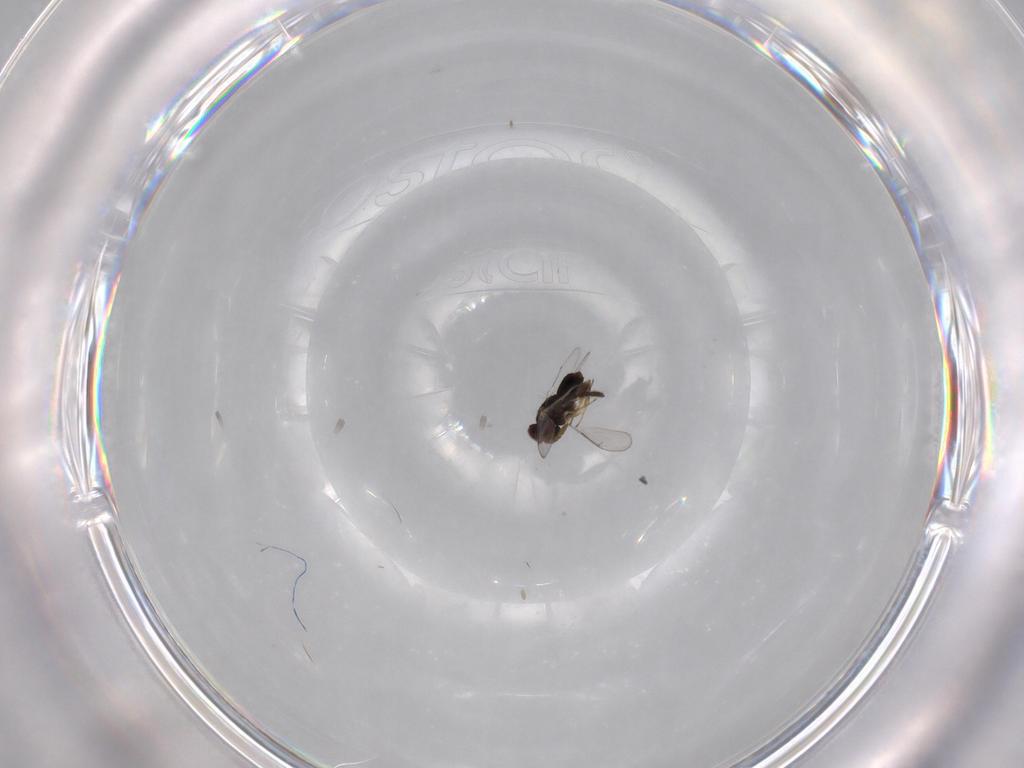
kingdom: Animalia
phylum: Arthropoda
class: Insecta
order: Hymenoptera
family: Aphelinidae
